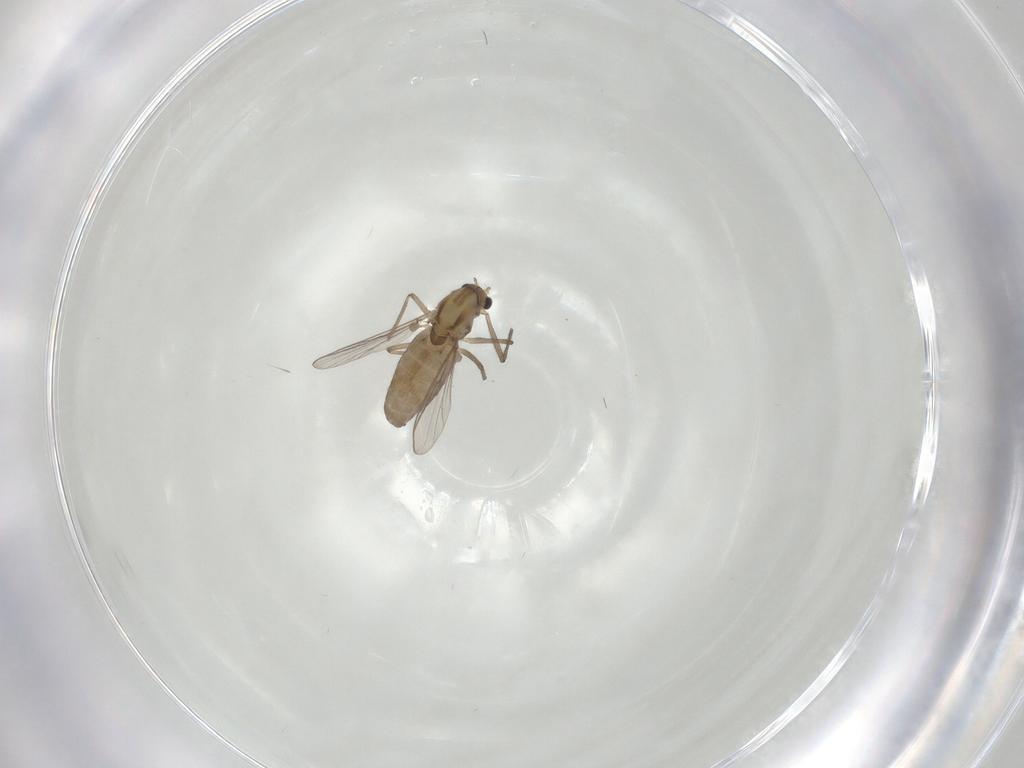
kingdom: Animalia
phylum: Arthropoda
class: Insecta
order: Diptera
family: Chironomidae
